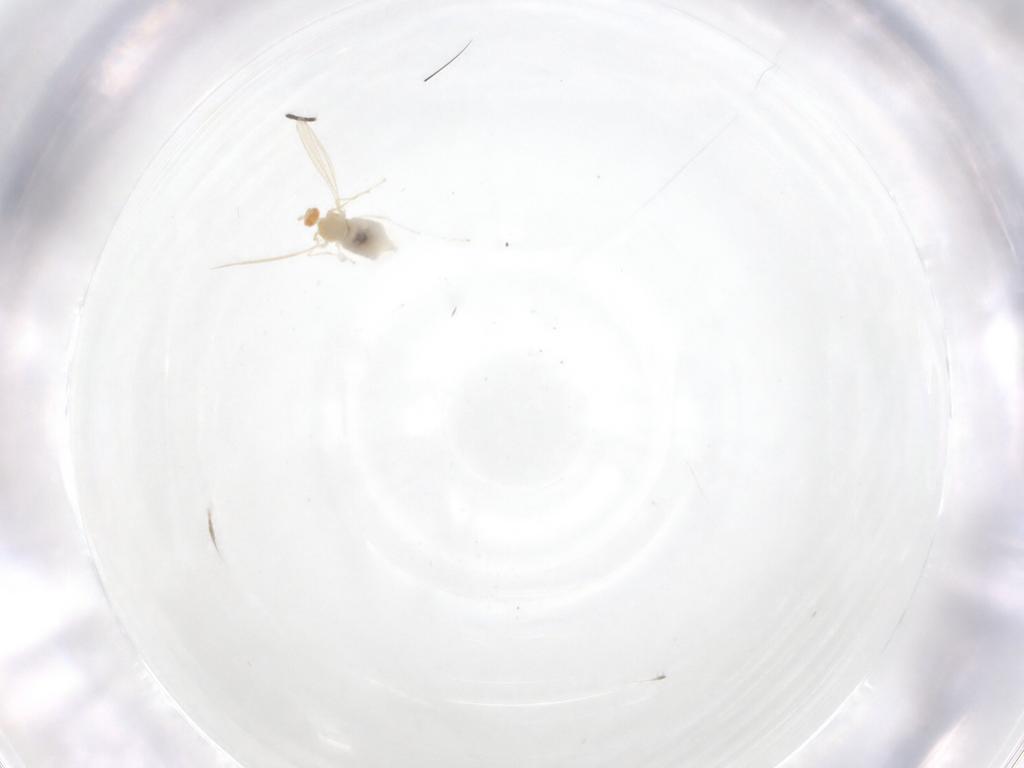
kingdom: Animalia
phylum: Arthropoda
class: Insecta
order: Diptera
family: Cecidomyiidae
